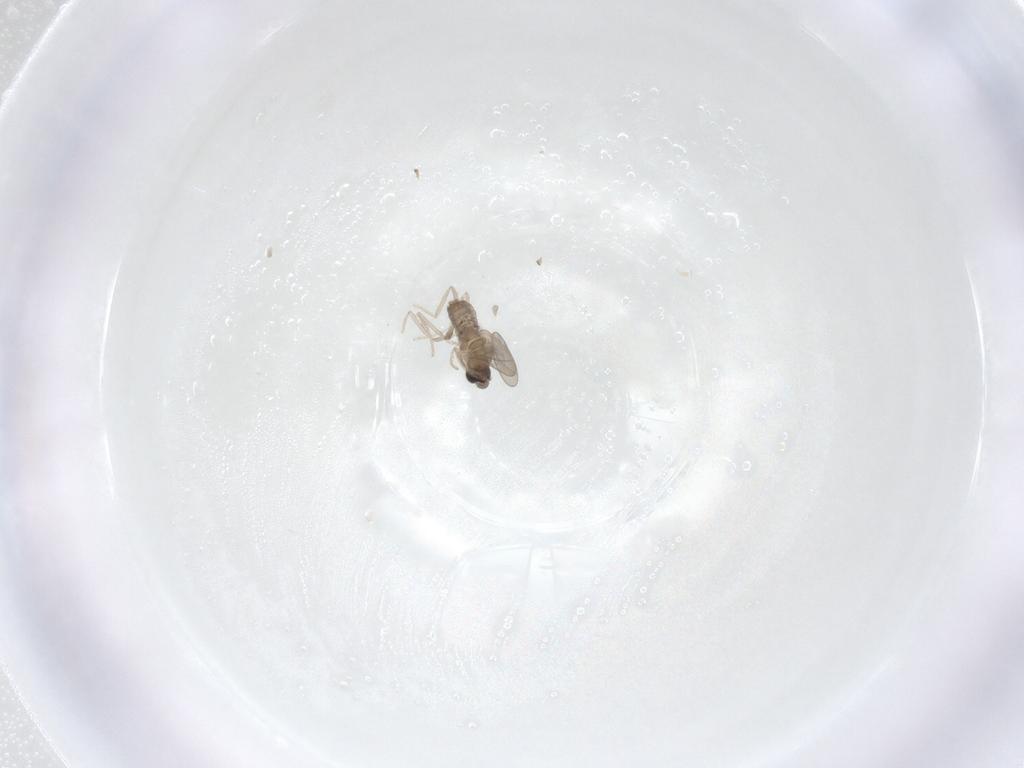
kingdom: Animalia
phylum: Arthropoda
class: Insecta
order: Diptera
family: Cecidomyiidae
